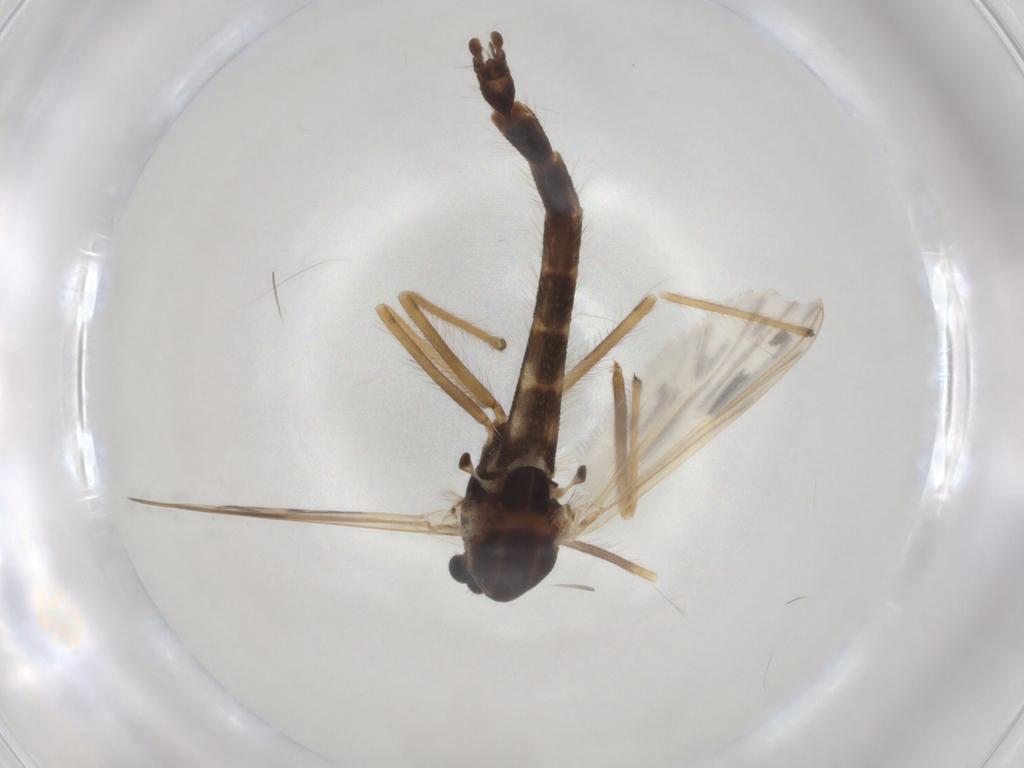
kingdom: Animalia
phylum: Arthropoda
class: Insecta
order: Diptera
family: Chironomidae
